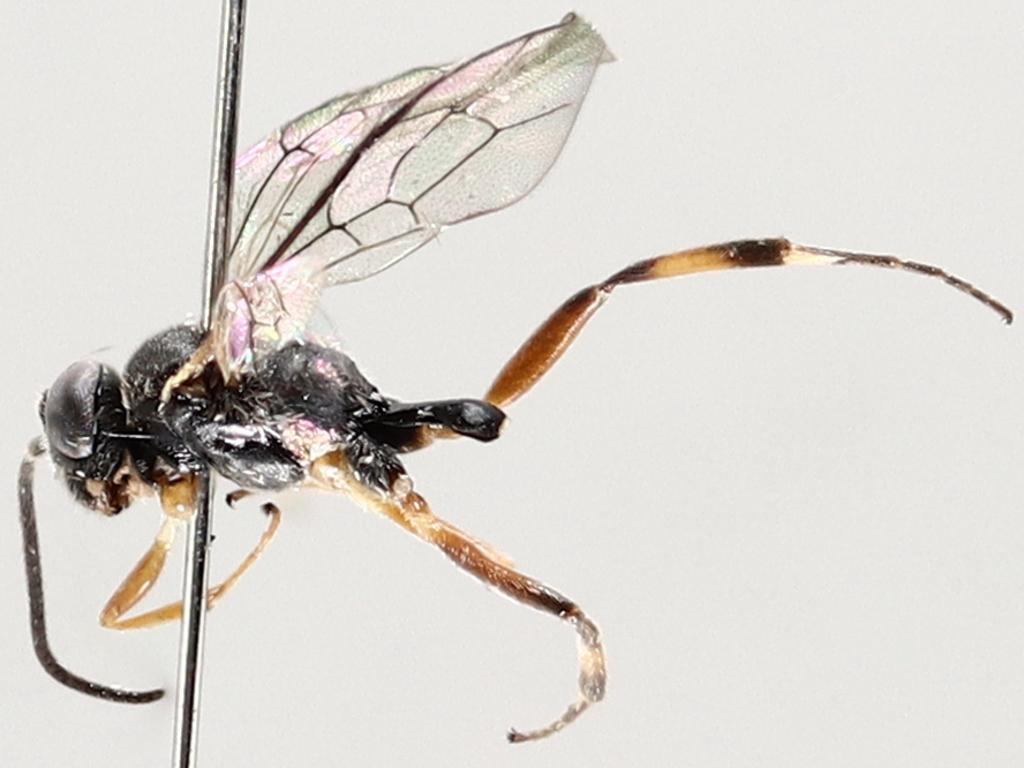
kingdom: Animalia
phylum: Arthropoda
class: Insecta
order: Diptera
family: Phoridae
